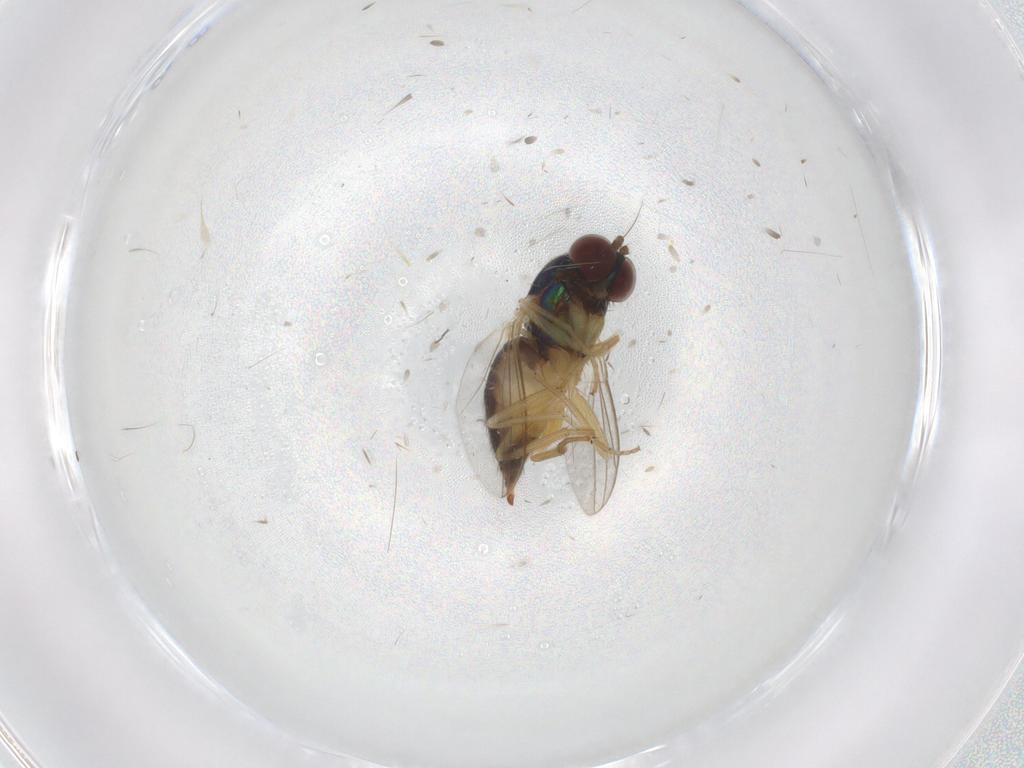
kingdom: Animalia
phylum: Arthropoda
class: Insecta
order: Diptera
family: Dolichopodidae
